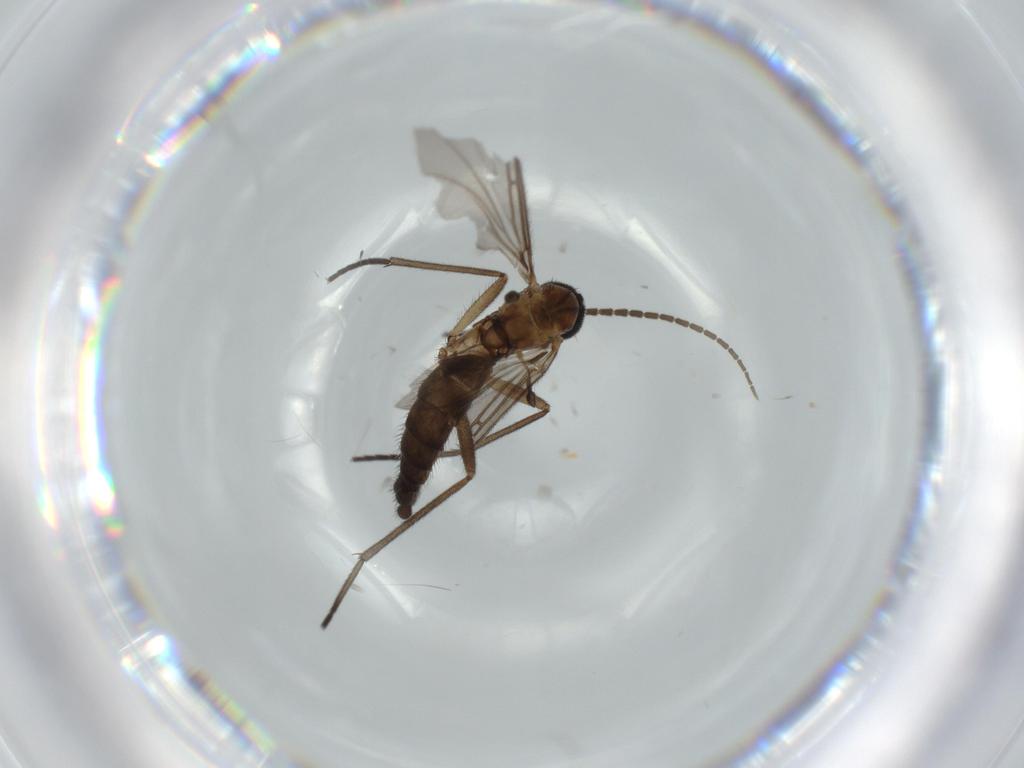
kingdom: Animalia
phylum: Arthropoda
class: Insecta
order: Diptera
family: Sciaridae
